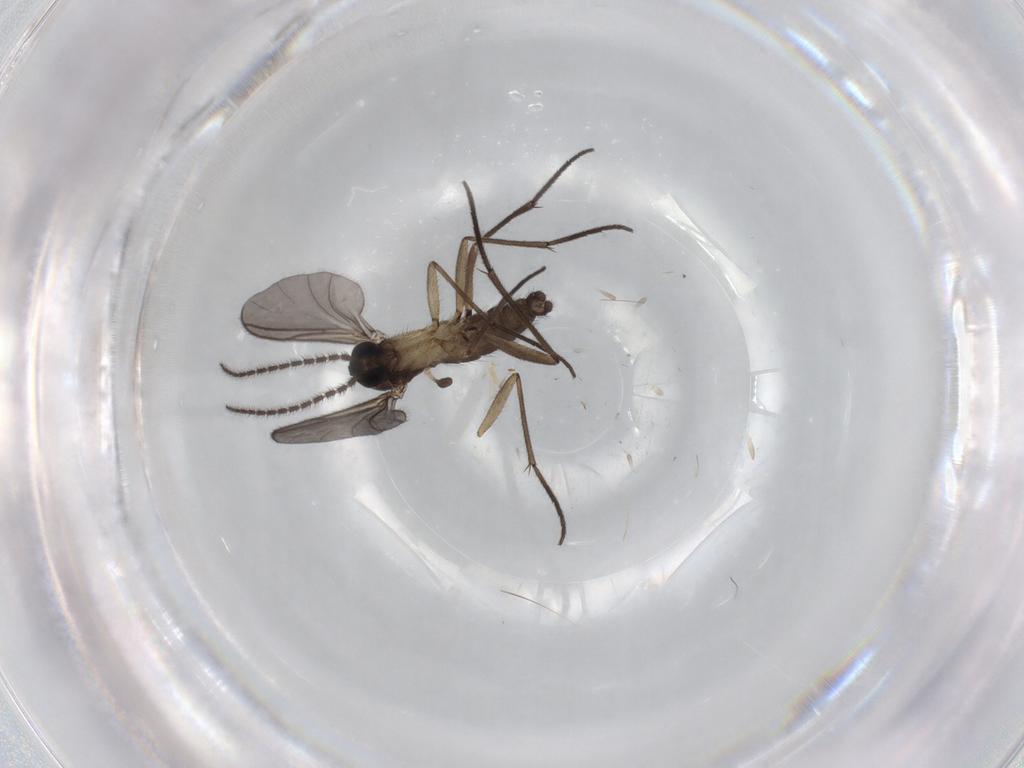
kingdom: Animalia
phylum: Arthropoda
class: Insecta
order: Diptera
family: Sciaridae
